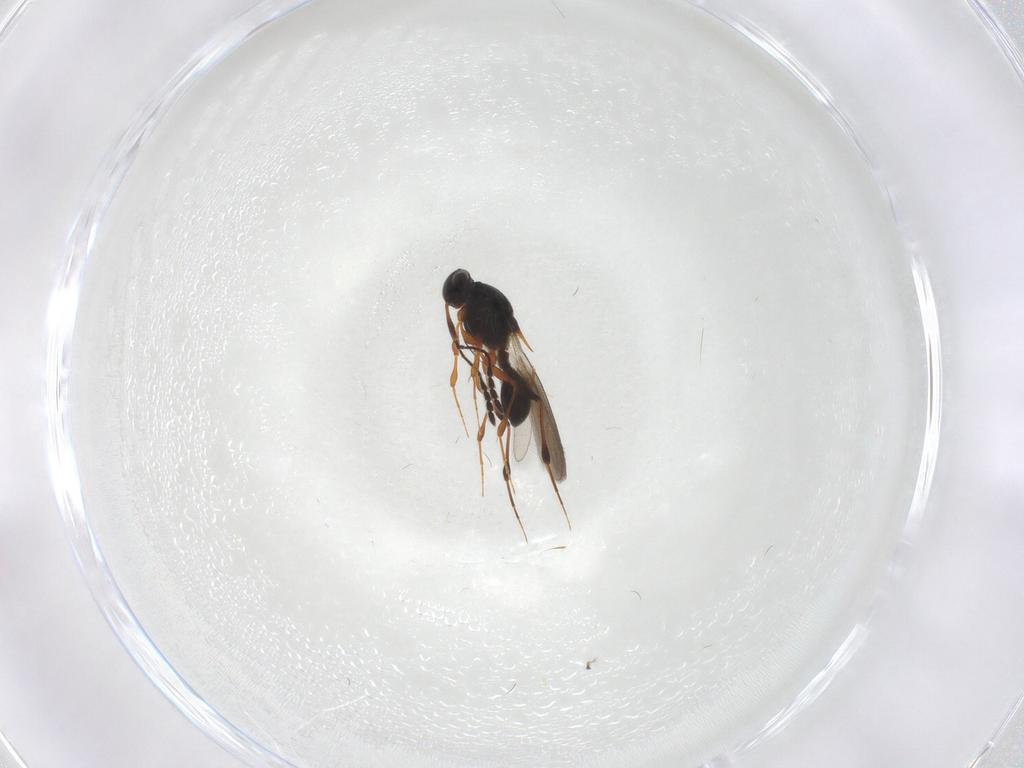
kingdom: Animalia
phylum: Arthropoda
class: Insecta
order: Hymenoptera
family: Platygastridae
